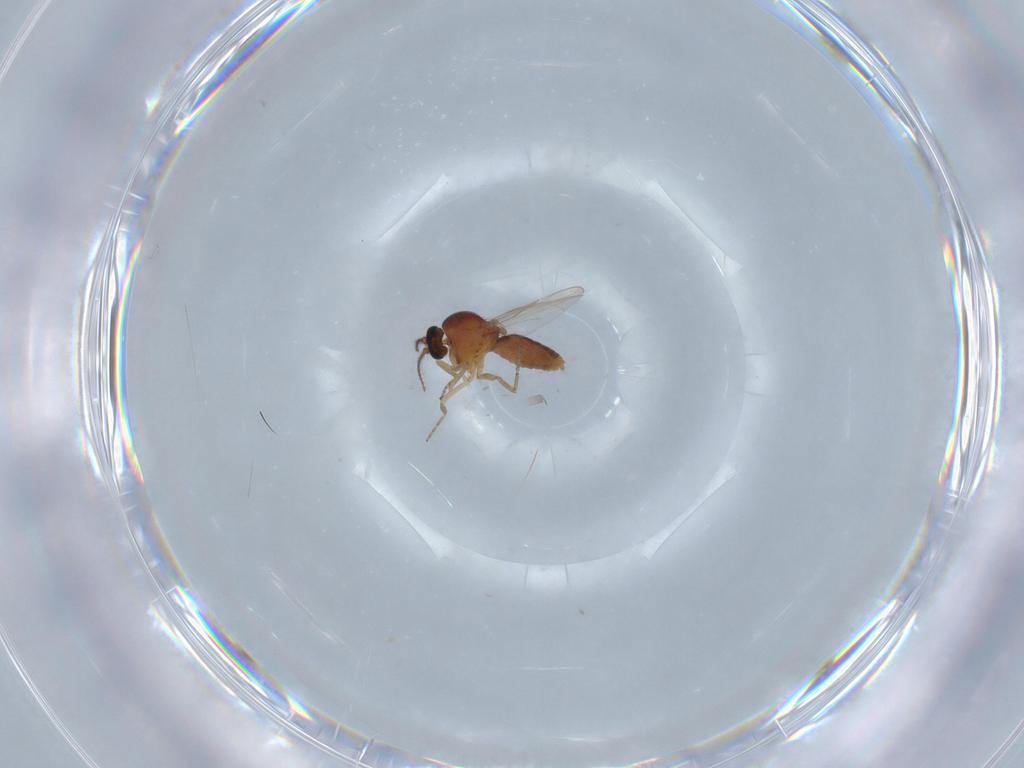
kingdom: Animalia
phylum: Arthropoda
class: Insecta
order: Diptera
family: Ceratopogonidae
